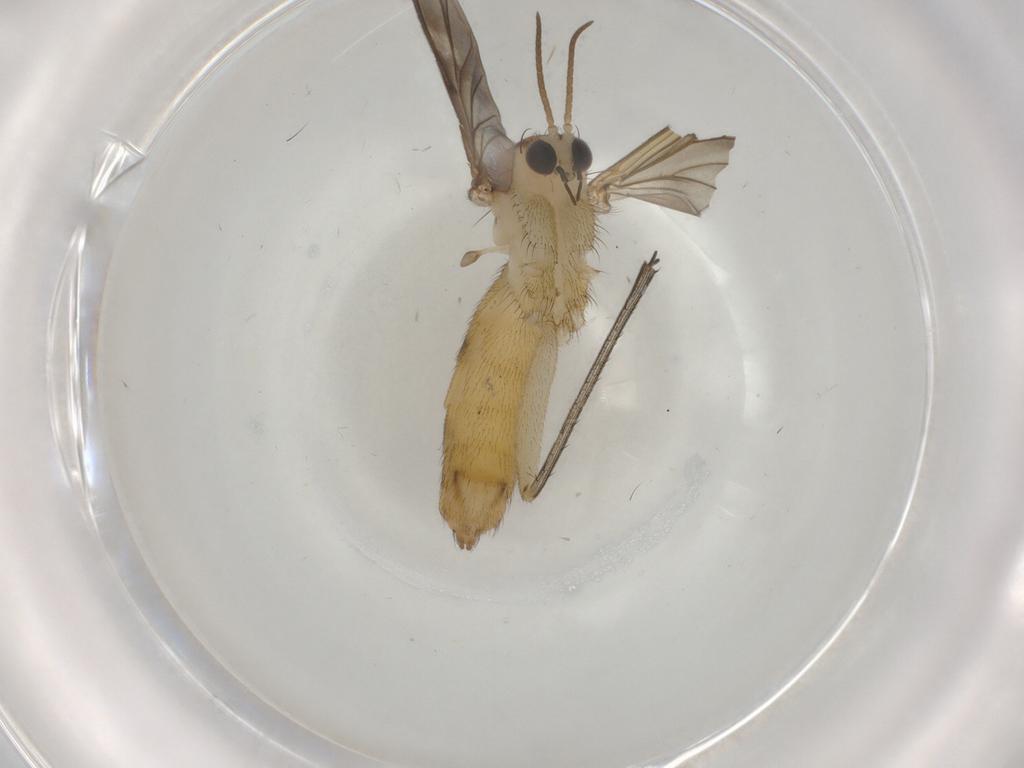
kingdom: Animalia
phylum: Arthropoda
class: Insecta
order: Diptera
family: Mycetophilidae
